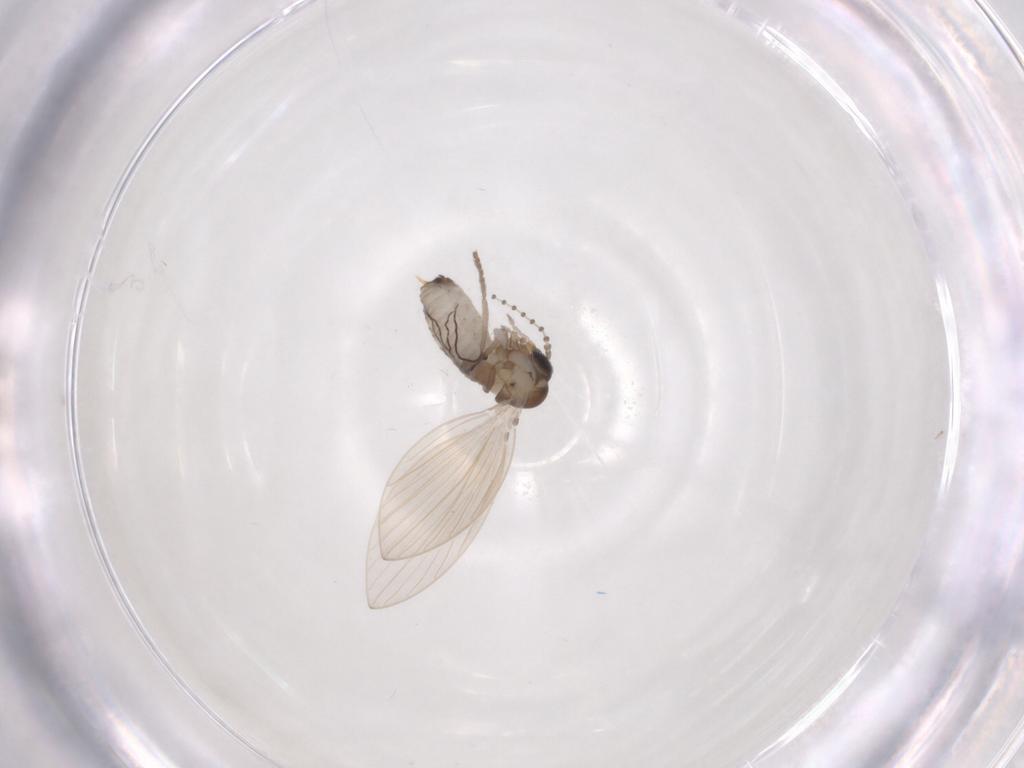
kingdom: Animalia
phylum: Arthropoda
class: Insecta
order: Diptera
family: Psychodidae
